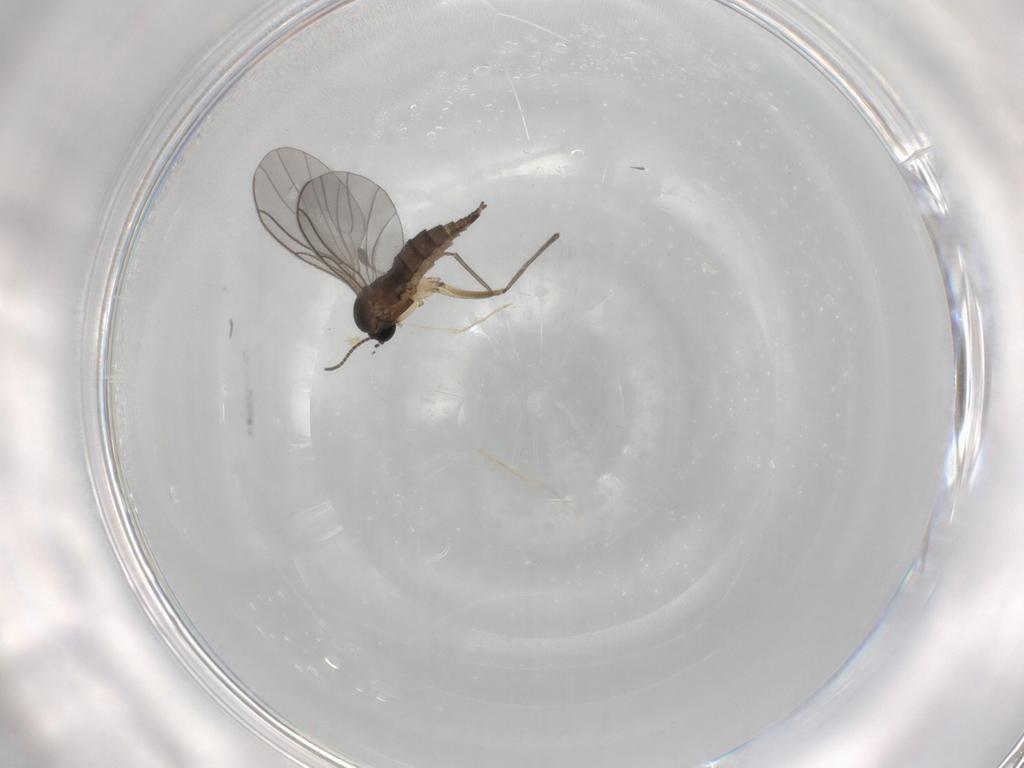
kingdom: Animalia
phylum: Arthropoda
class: Insecta
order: Diptera
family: Sciaridae
